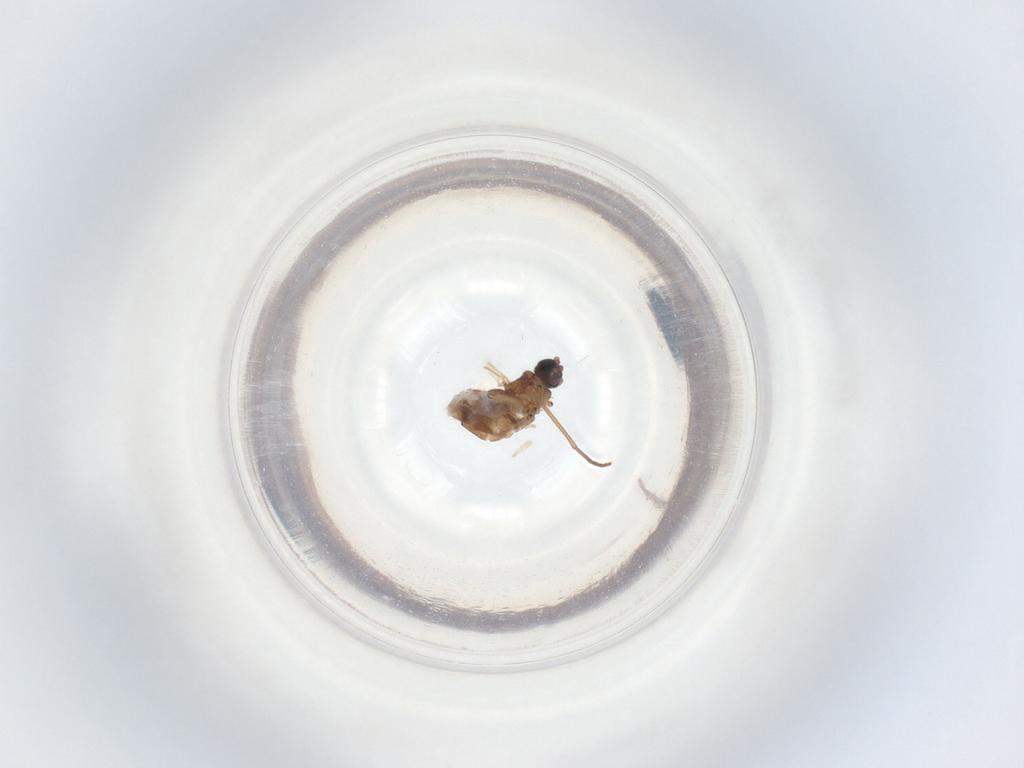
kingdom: Animalia
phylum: Arthropoda
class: Insecta
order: Diptera
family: Sciaridae
